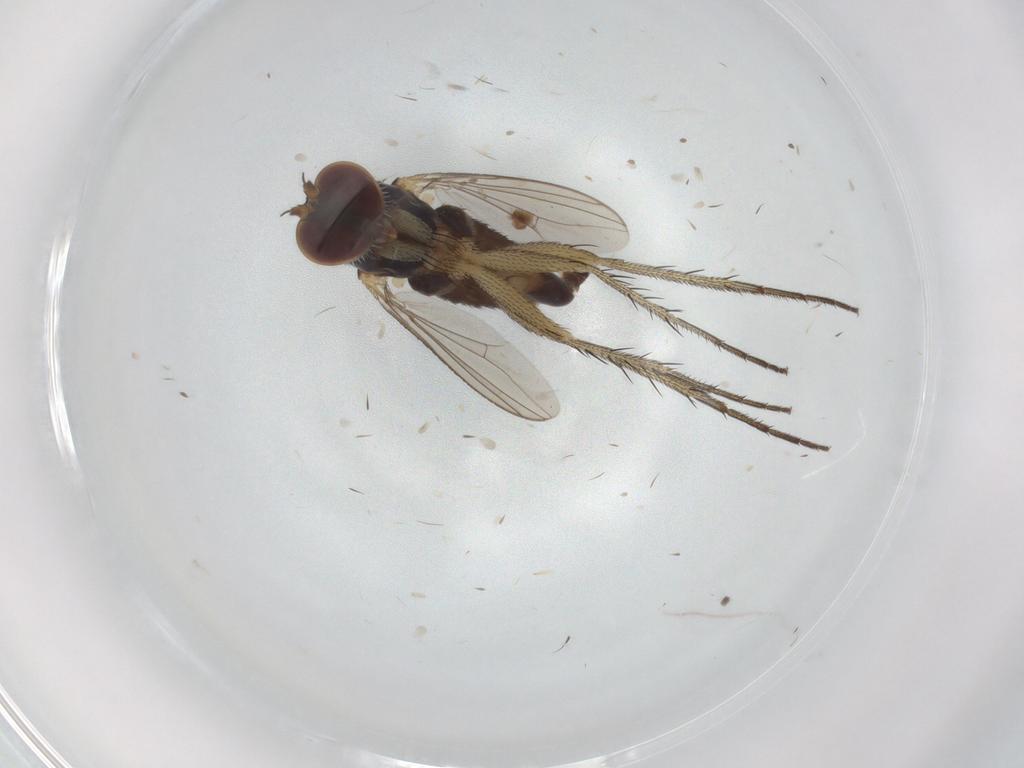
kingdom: Animalia
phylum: Arthropoda
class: Insecta
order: Diptera
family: Dolichopodidae
